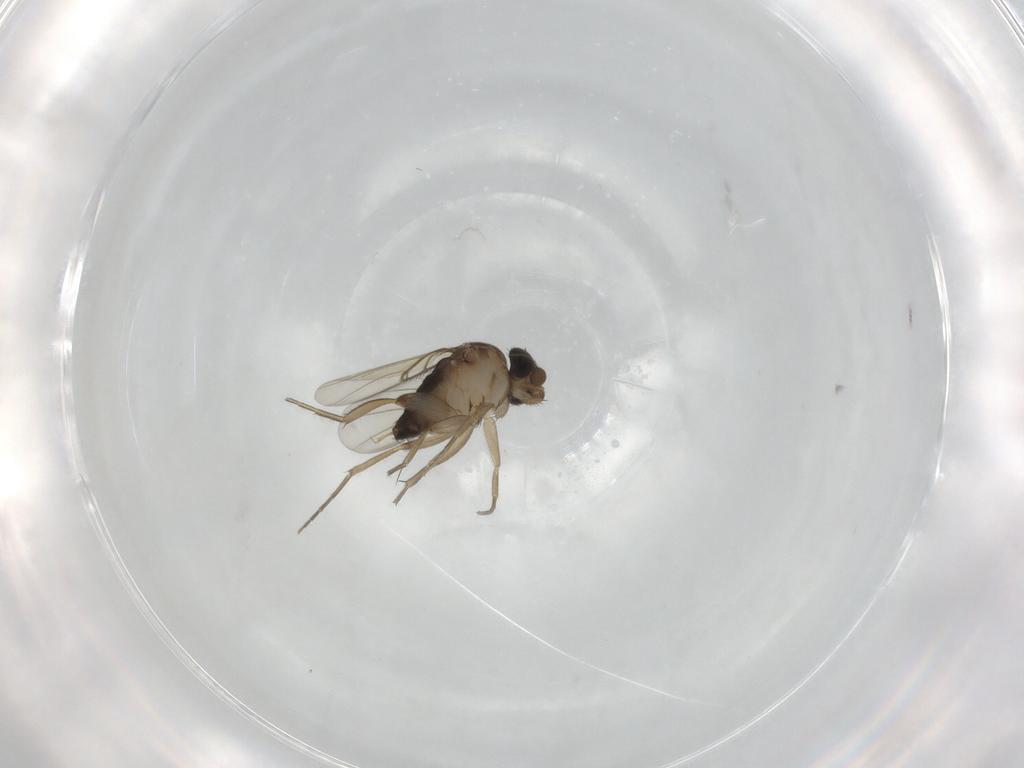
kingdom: Animalia
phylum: Arthropoda
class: Insecta
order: Diptera
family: Phoridae
